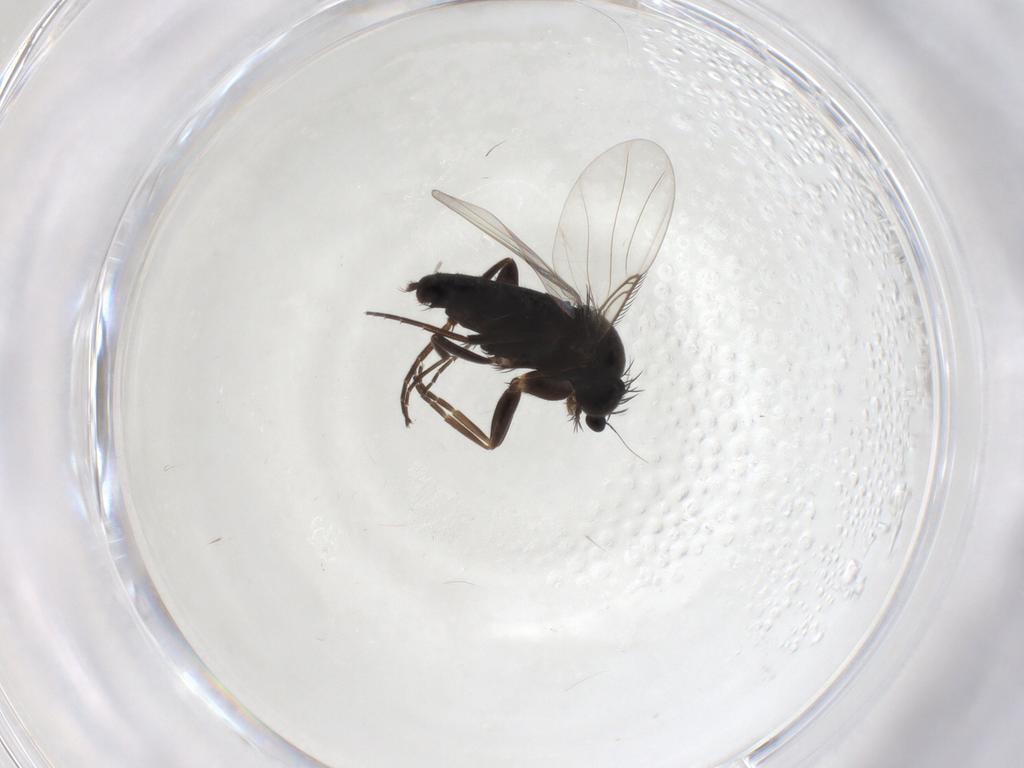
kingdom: Animalia
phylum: Arthropoda
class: Insecta
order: Diptera
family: Phoridae
